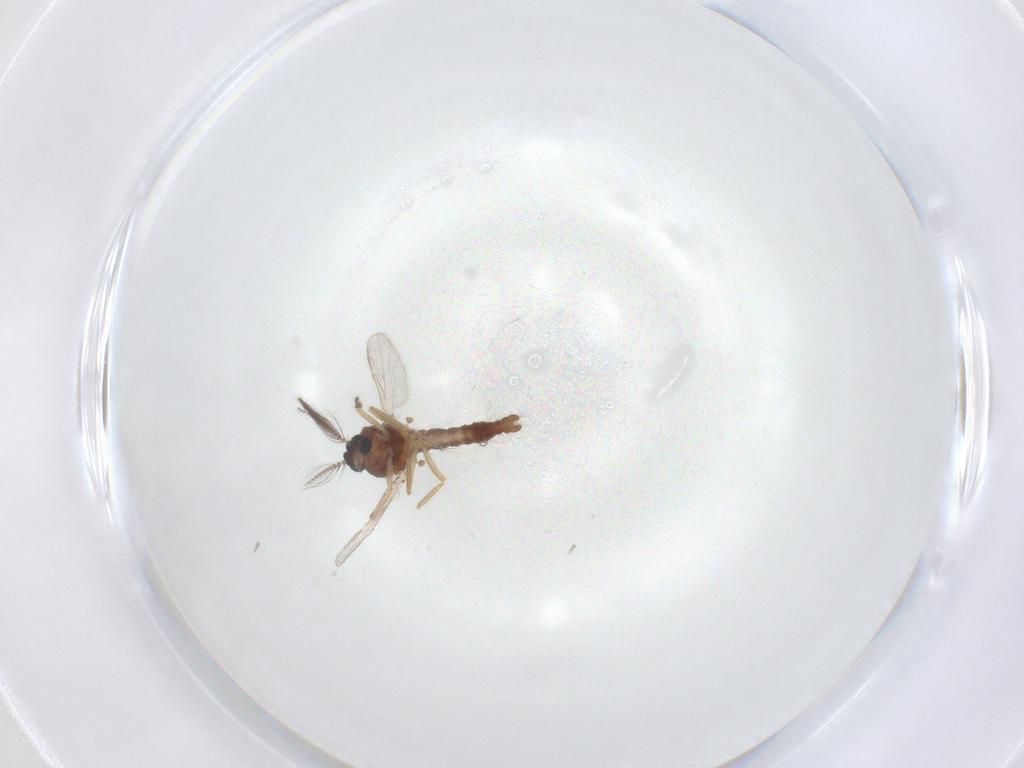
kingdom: Animalia
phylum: Arthropoda
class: Insecta
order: Diptera
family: Ceratopogonidae
